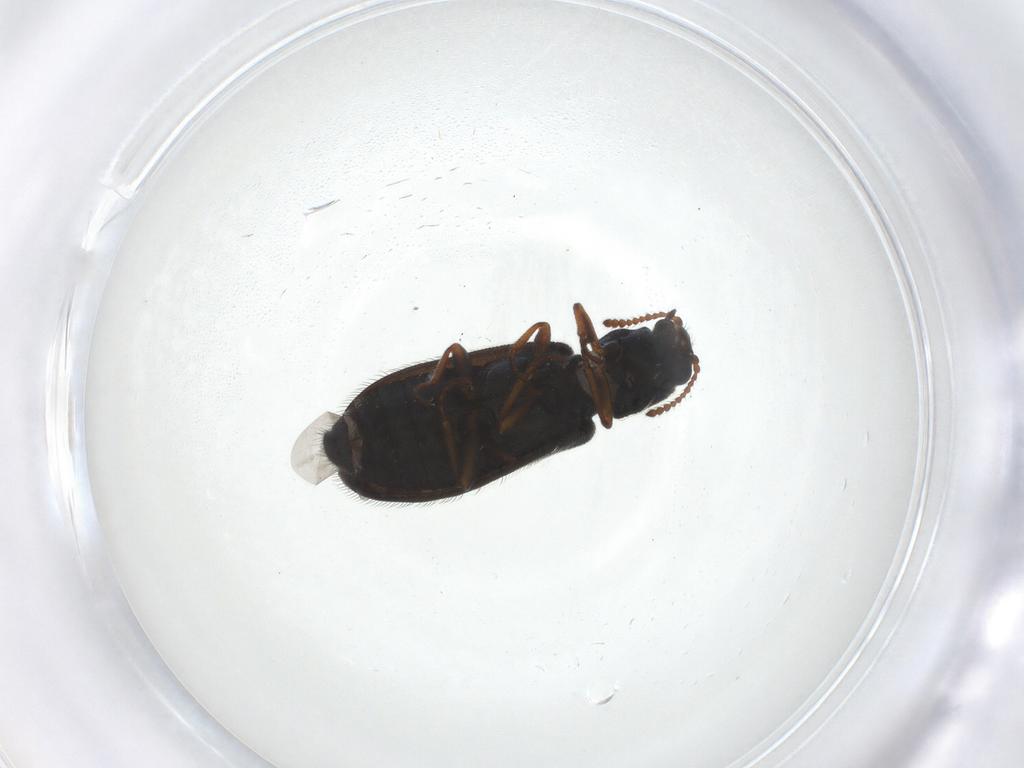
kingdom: Animalia
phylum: Arthropoda
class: Insecta
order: Coleoptera
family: Melyridae
